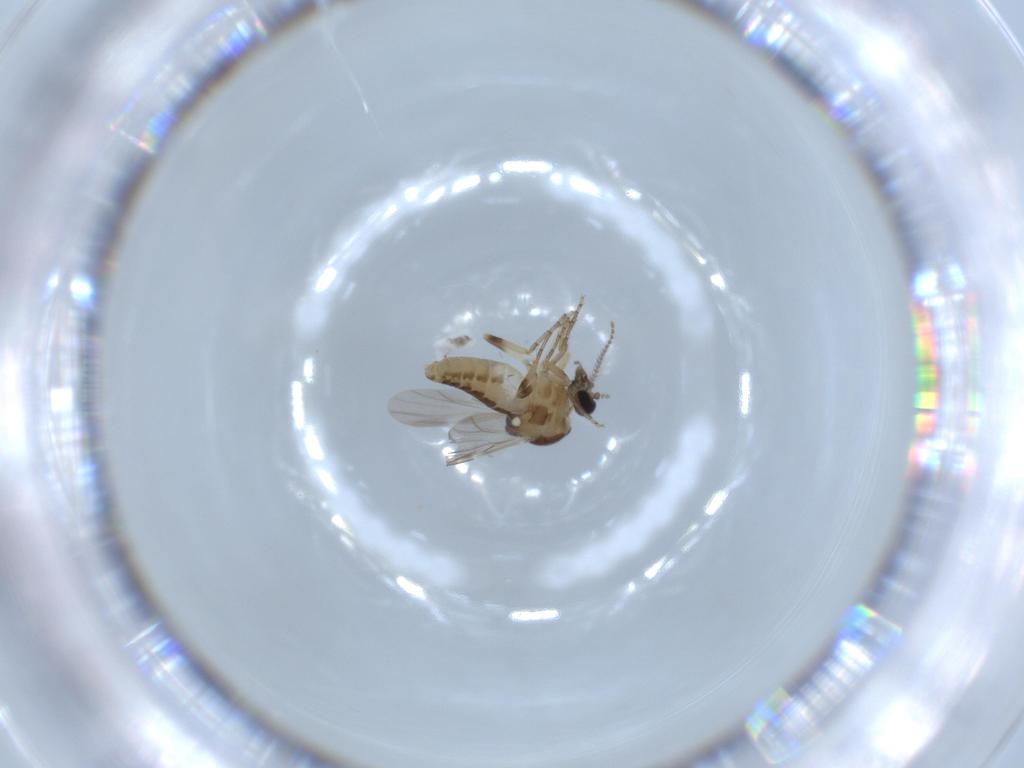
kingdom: Animalia
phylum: Arthropoda
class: Insecta
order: Diptera
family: Ceratopogonidae
